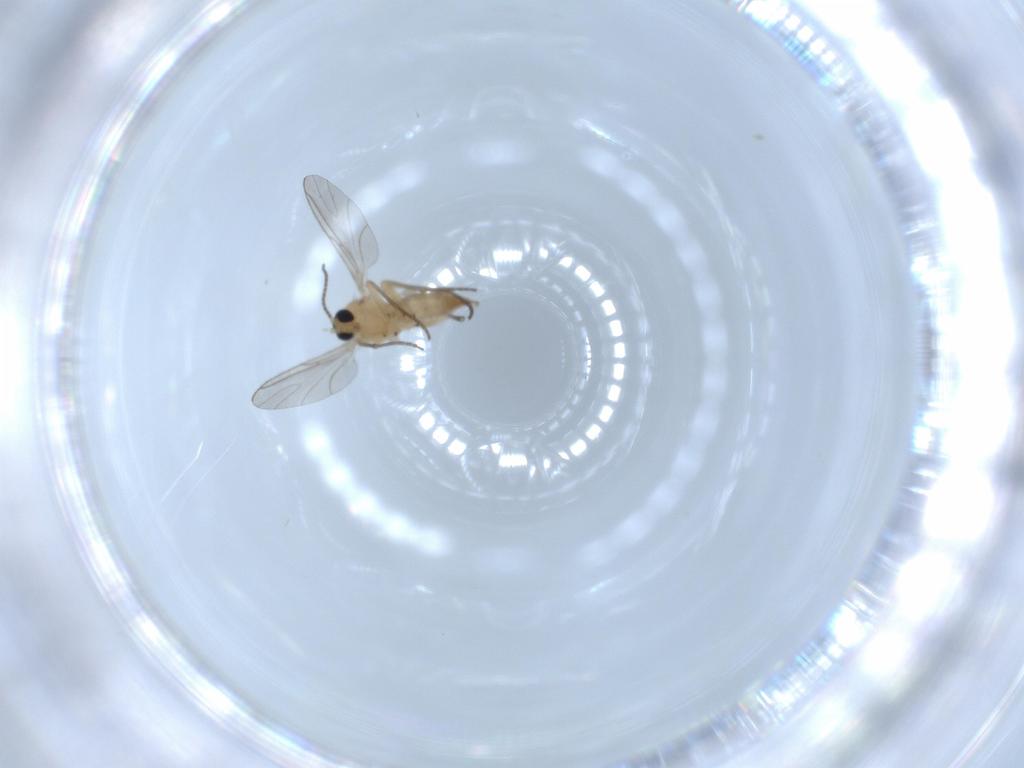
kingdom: Animalia
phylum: Arthropoda
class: Insecta
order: Diptera
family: Sciaridae
